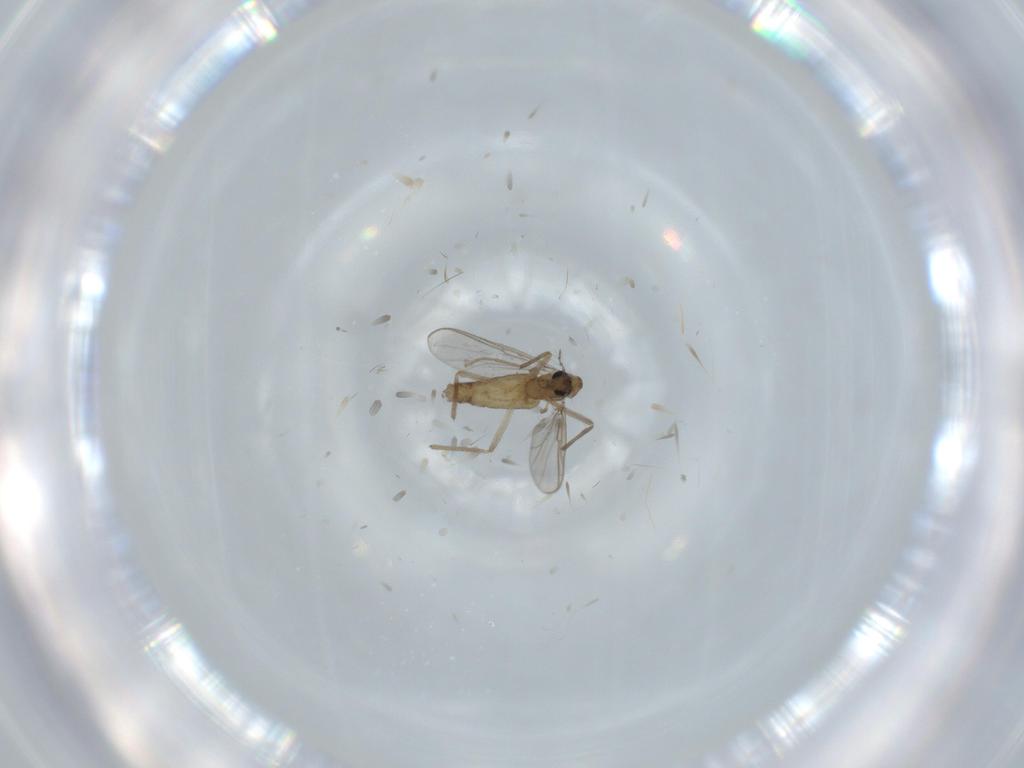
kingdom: Animalia
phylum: Arthropoda
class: Insecta
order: Diptera
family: Chironomidae
